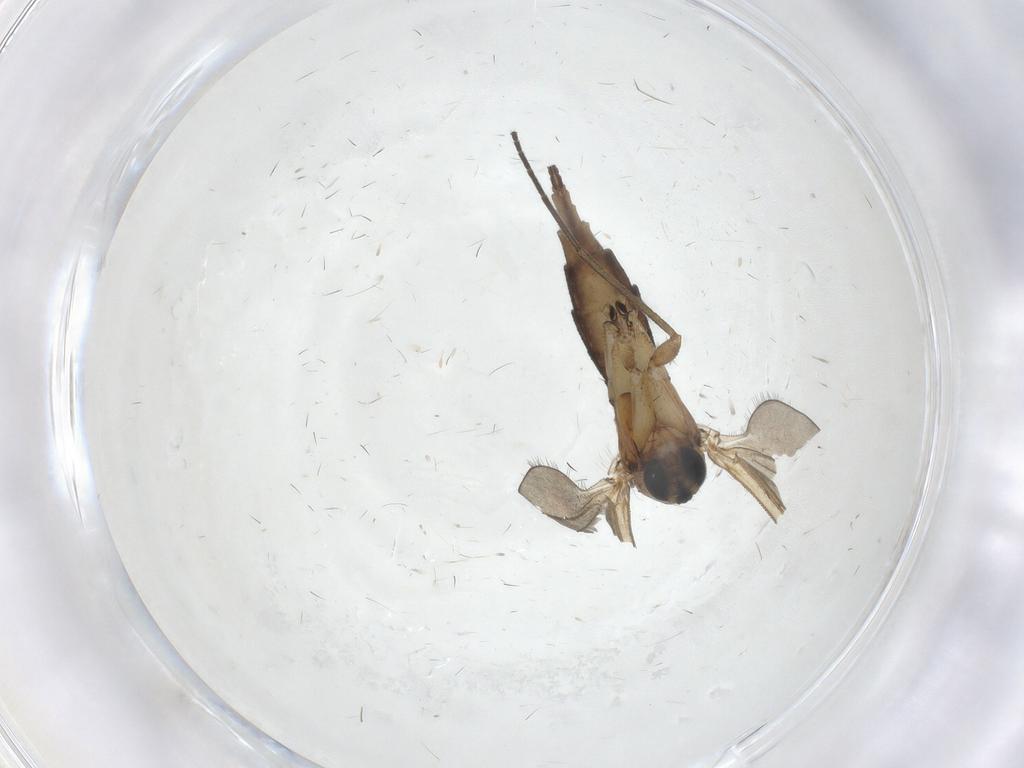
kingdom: Animalia
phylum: Arthropoda
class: Insecta
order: Diptera
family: Sciaridae
